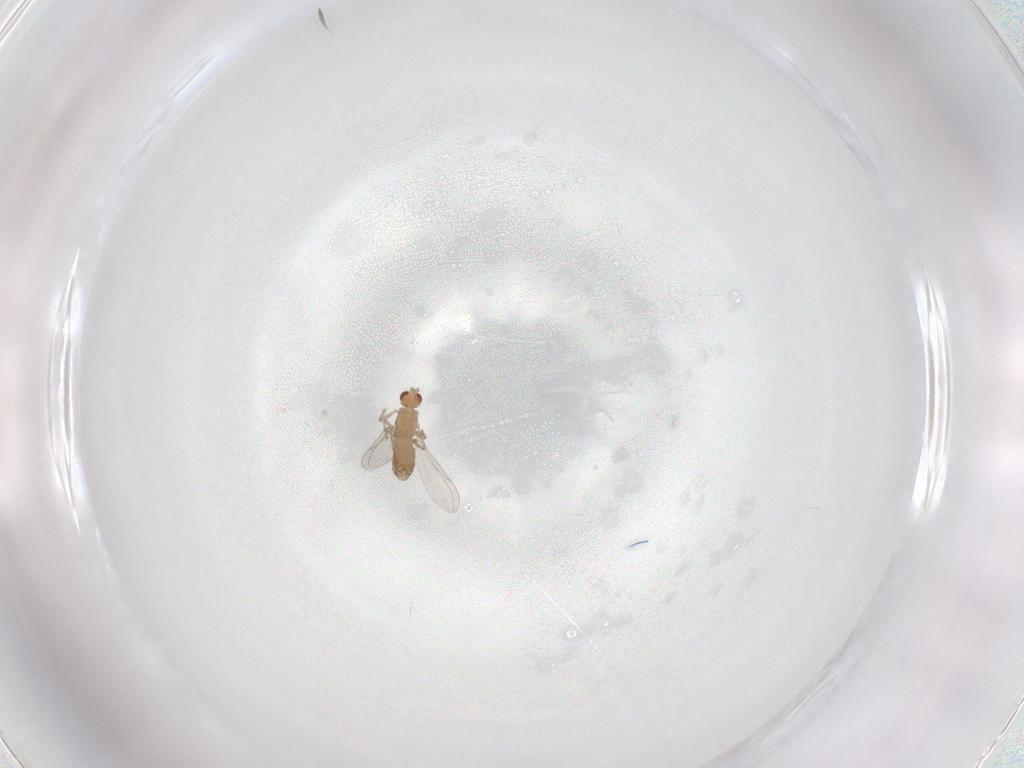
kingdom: Animalia
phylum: Arthropoda
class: Insecta
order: Diptera
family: Chironomidae
